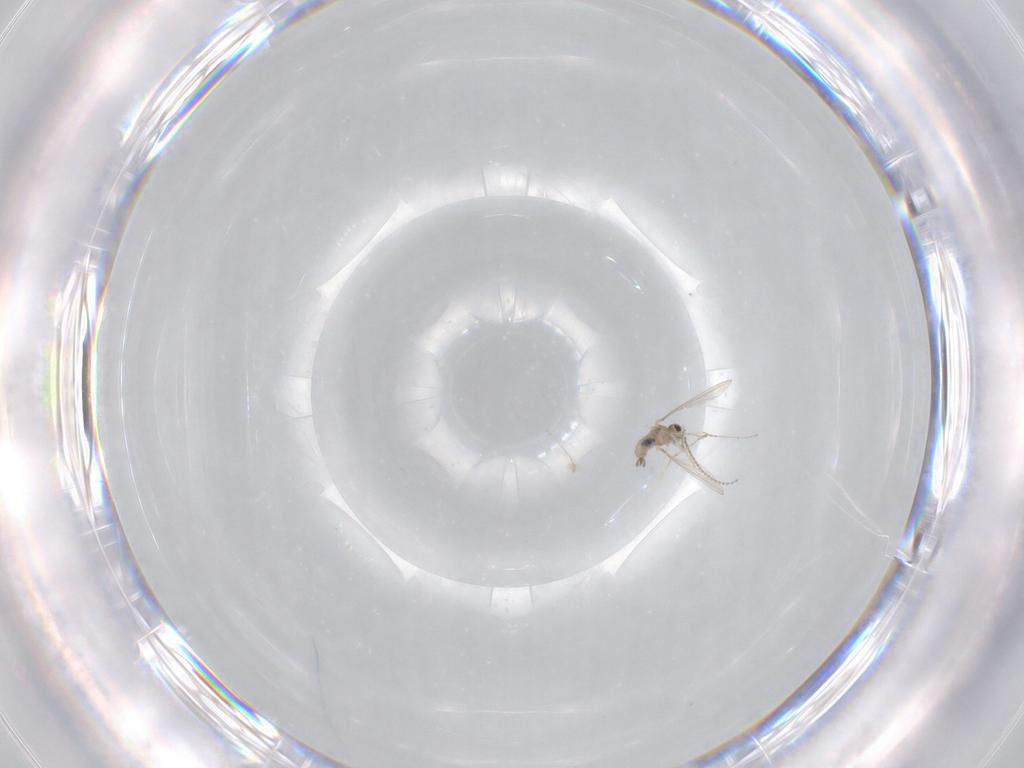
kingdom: Animalia
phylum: Arthropoda
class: Insecta
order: Diptera
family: Cecidomyiidae
